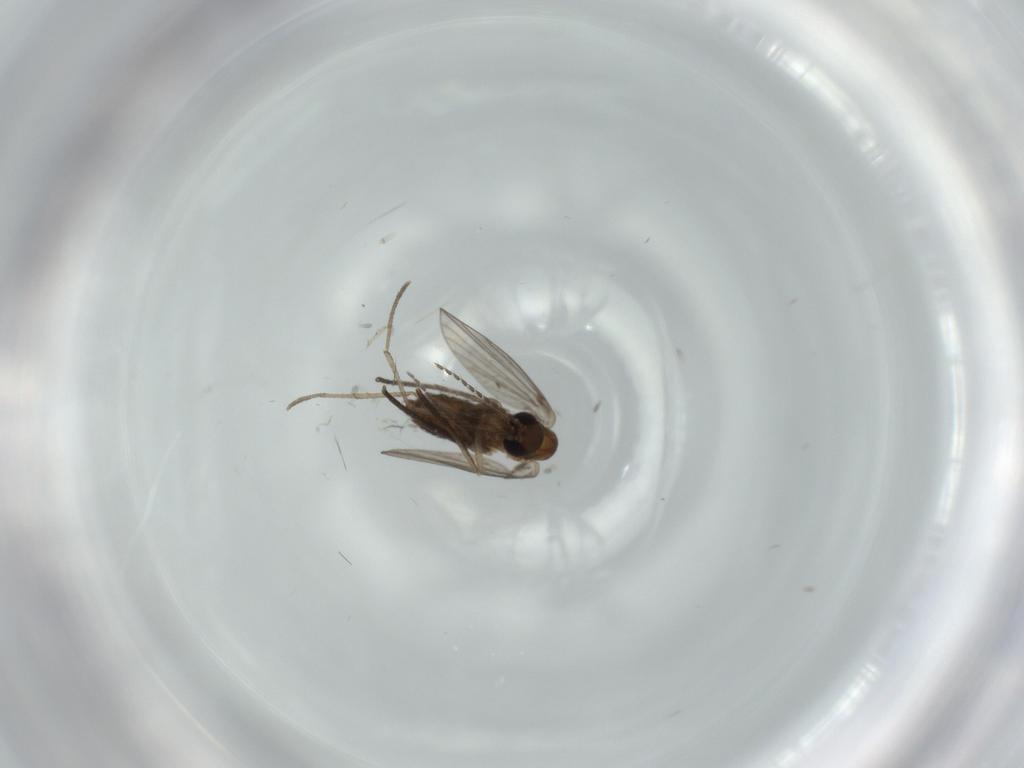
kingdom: Animalia
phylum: Arthropoda
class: Insecta
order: Diptera
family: Psychodidae
